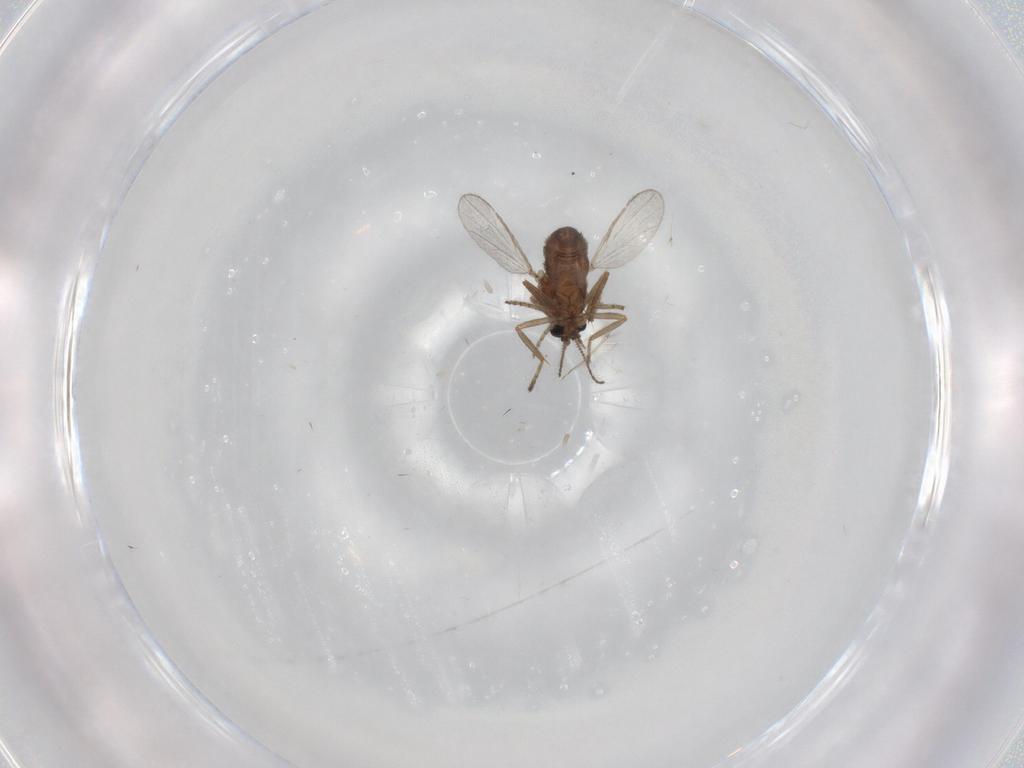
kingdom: Animalia
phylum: Arthropoda
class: Insecta
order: Diptera
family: Ceratopogonidae
